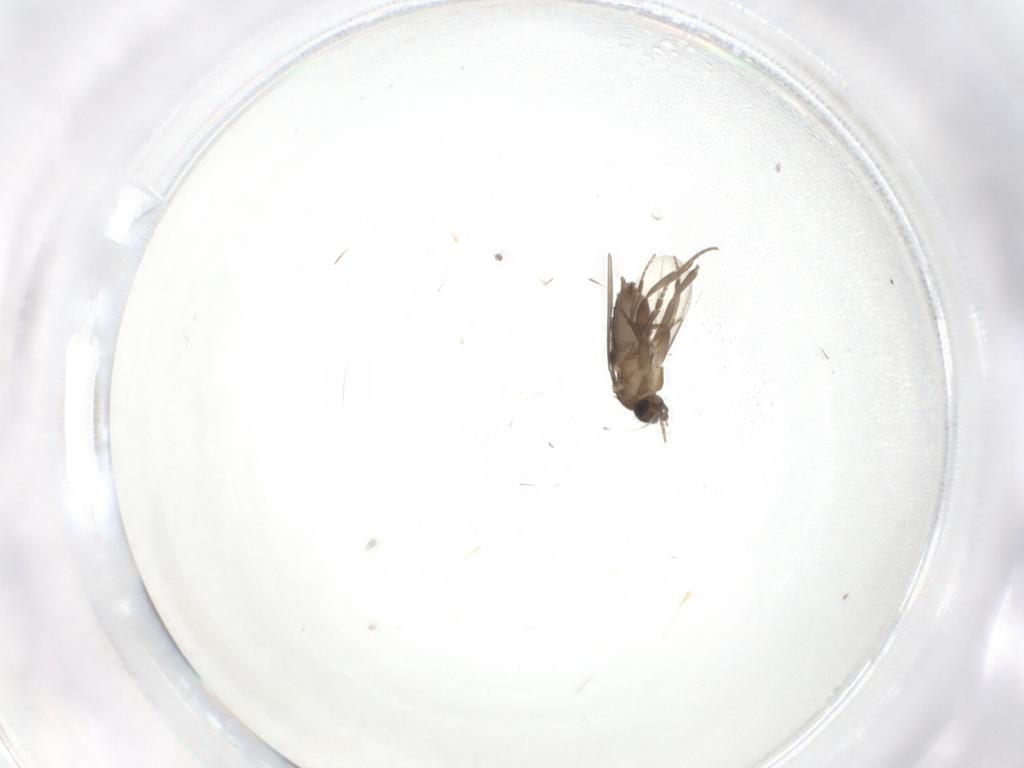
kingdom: Animalia
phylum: Arthropoda
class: Insecta
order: Diptera
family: Phoridae
